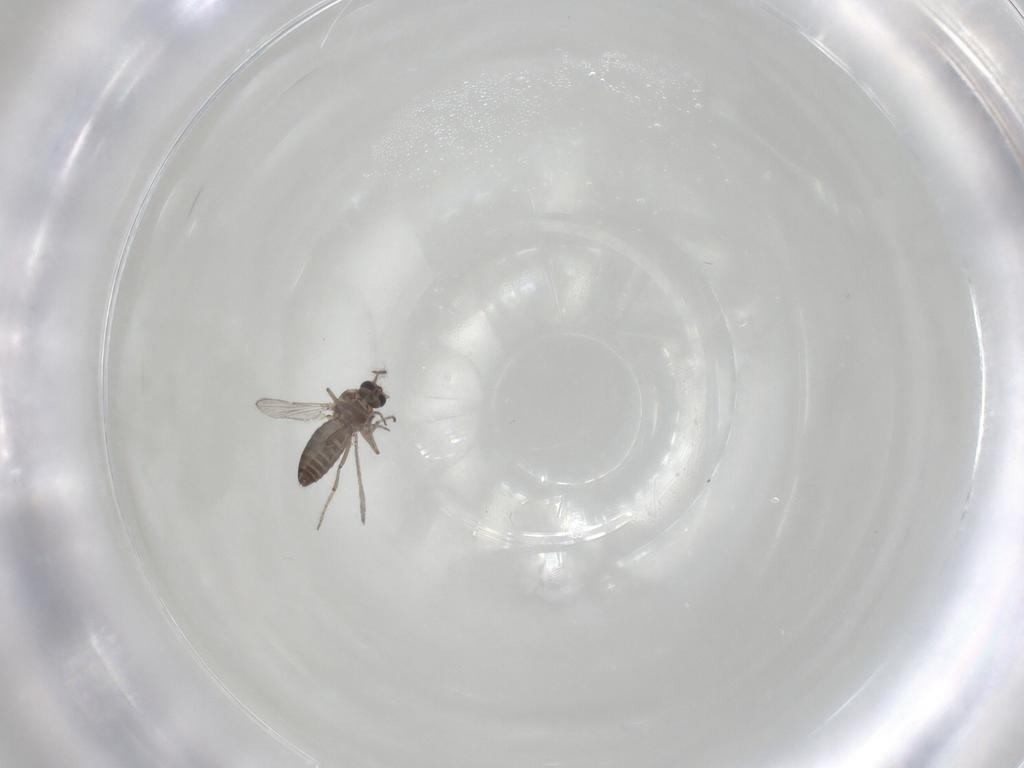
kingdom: Animalia
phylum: Arthropoda
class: Insecta
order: Diptera
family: Ceratopogonidae
